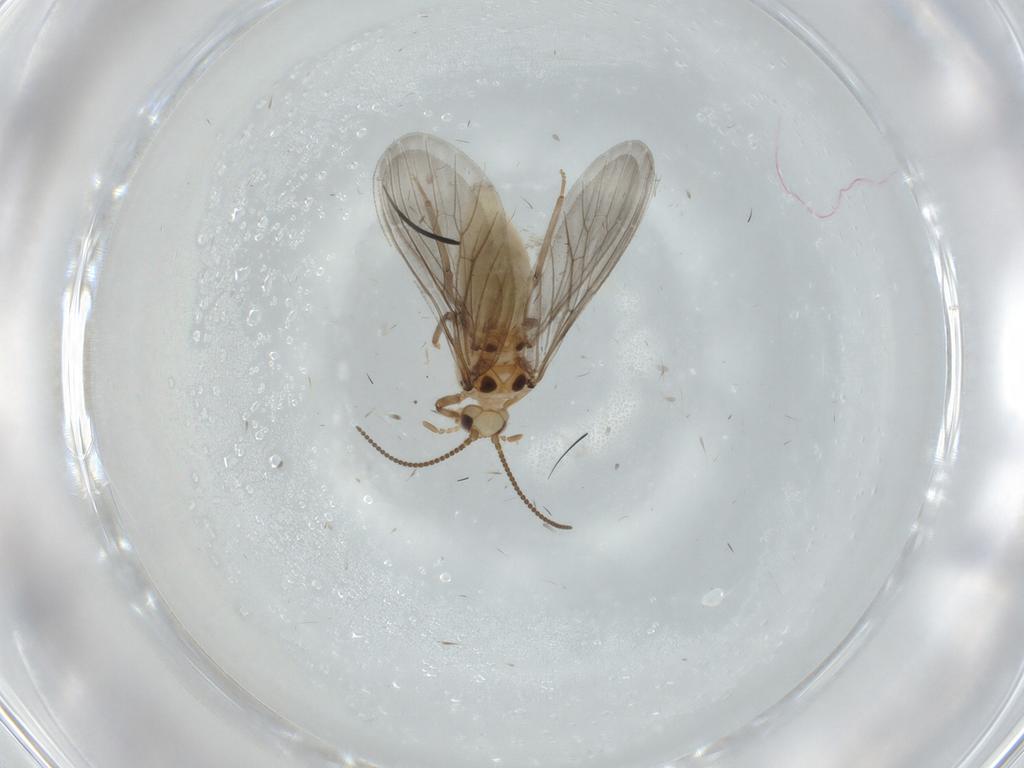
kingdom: Animalia
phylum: Arthropoda
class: Insecta
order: Neuroptera
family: Coniopterygidae
